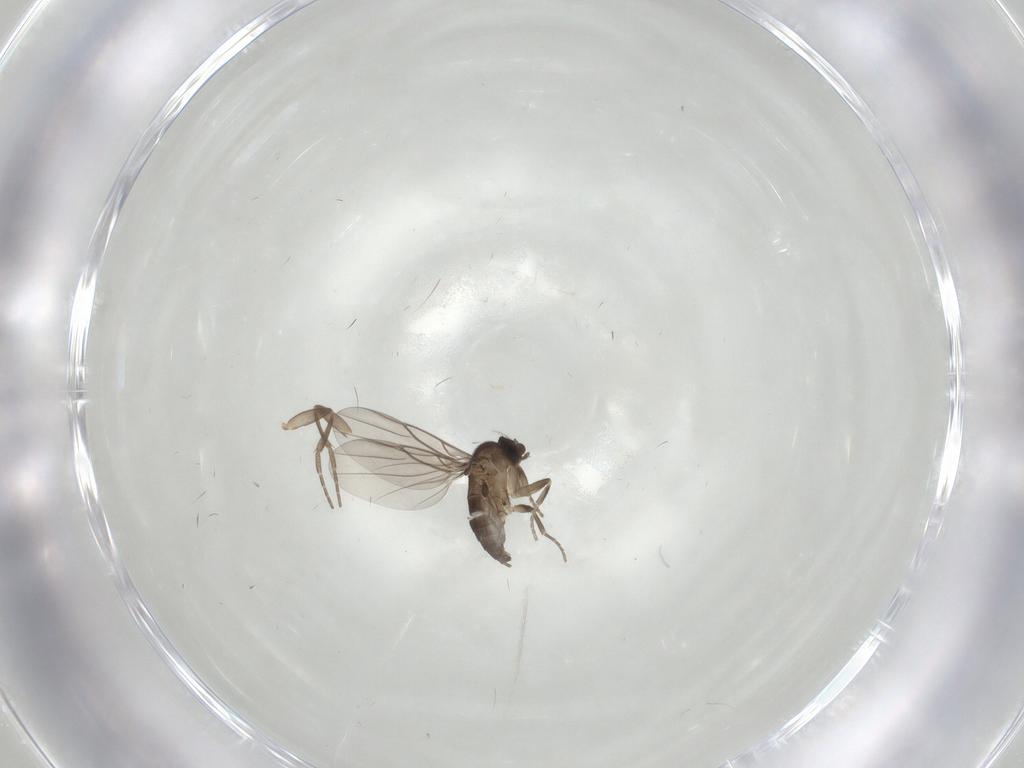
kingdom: Animalia
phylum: Arthropoda
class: Insecta
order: Diptera
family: Phoridae
